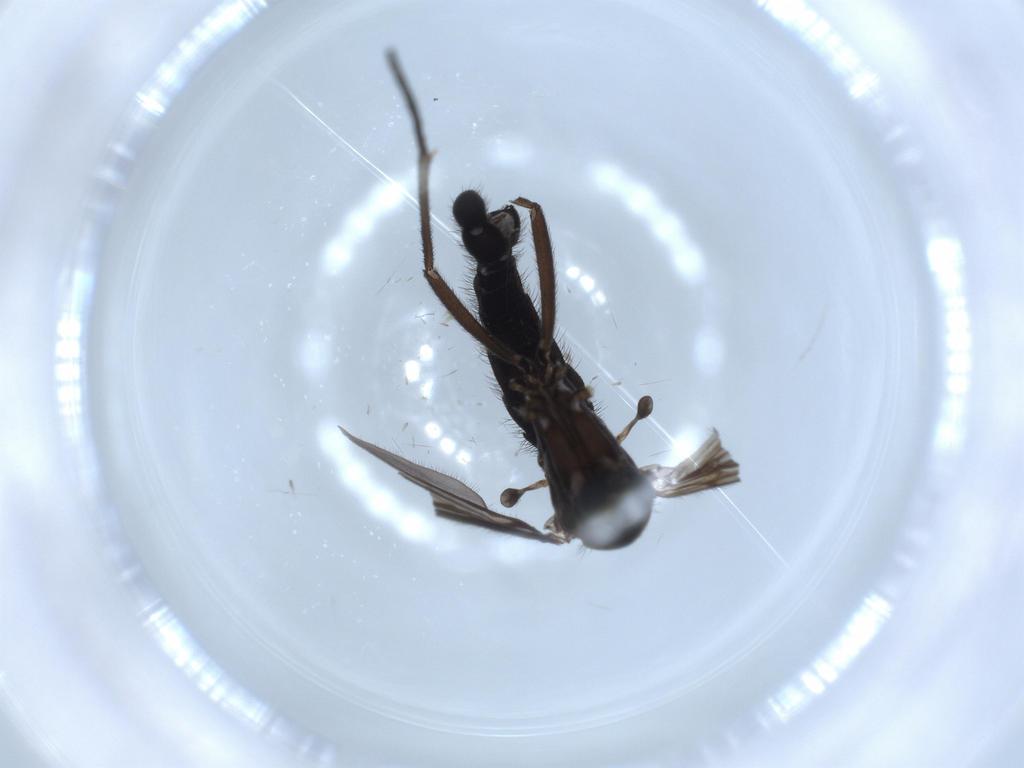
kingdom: Animalia
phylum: Arthropoda
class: Insecta
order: Diptera
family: Sciaridae
